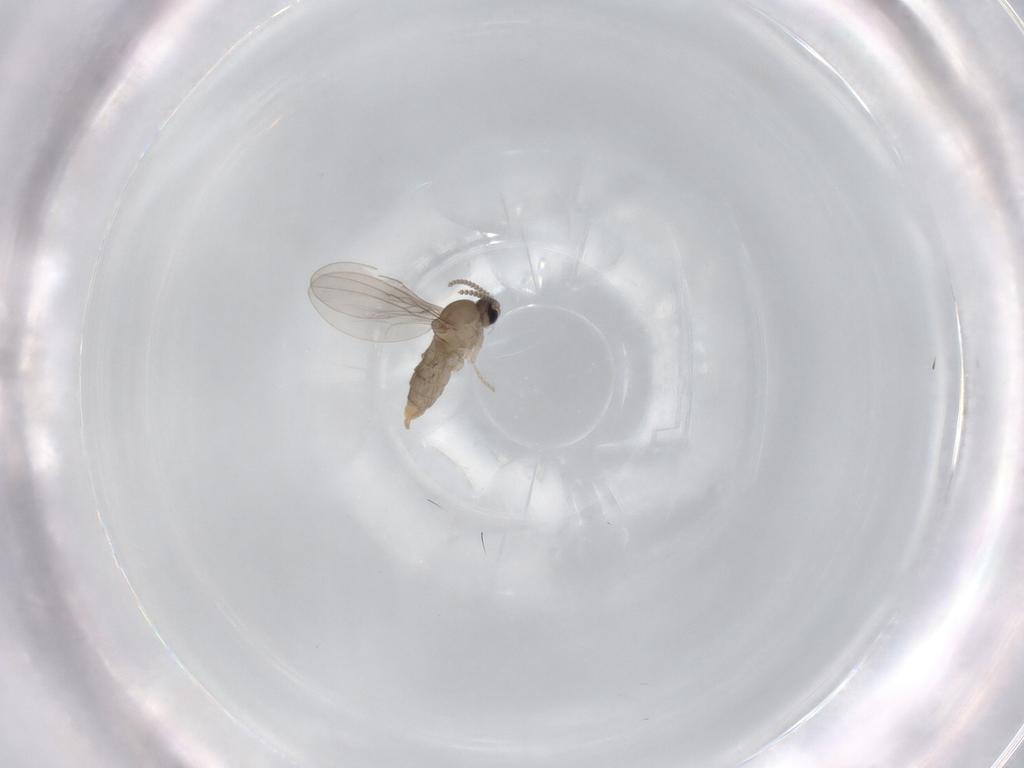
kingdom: Animalia
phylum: Arthropoda
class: Insecta
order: Diptera
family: Cecidomyiidae
